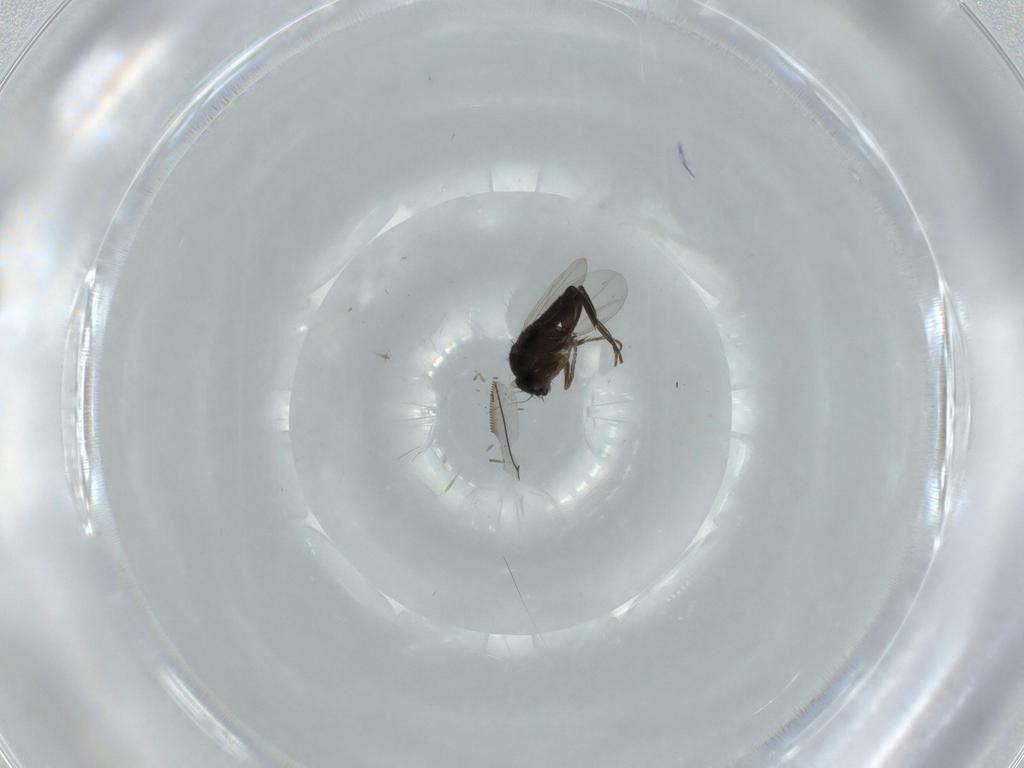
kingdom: Animalia
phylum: Arthropoda
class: Insecta
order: Diptera
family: Phoridae
